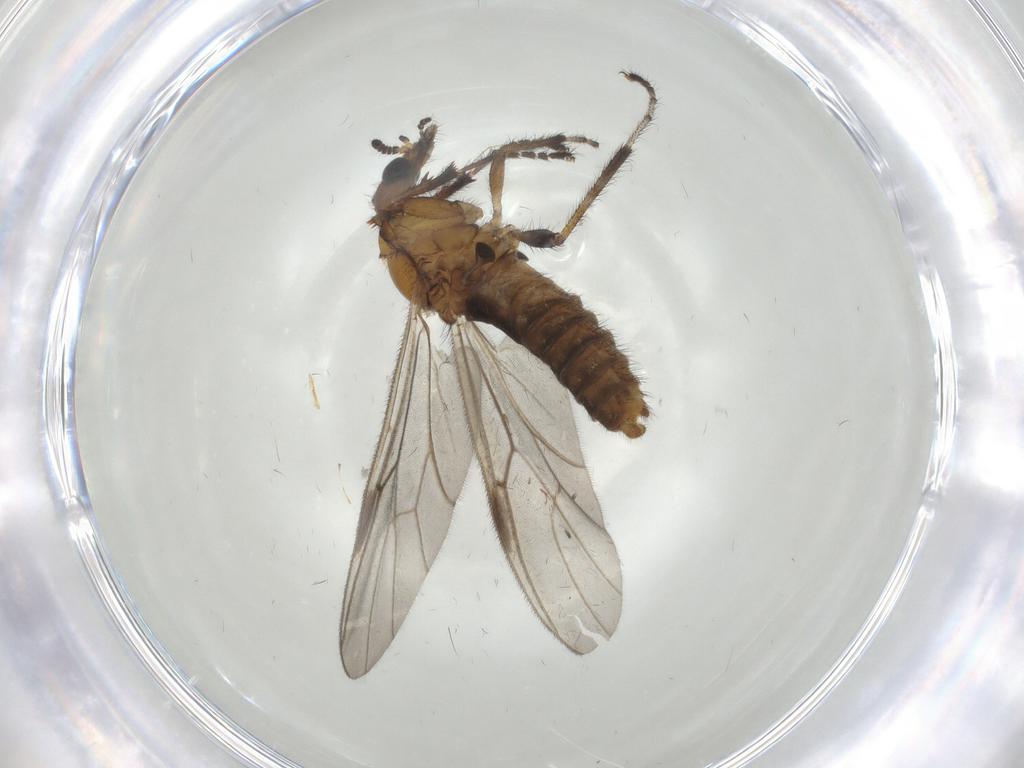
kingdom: Animalia
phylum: Arthropoda
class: Insecta
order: Diptera
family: Bibionidae
